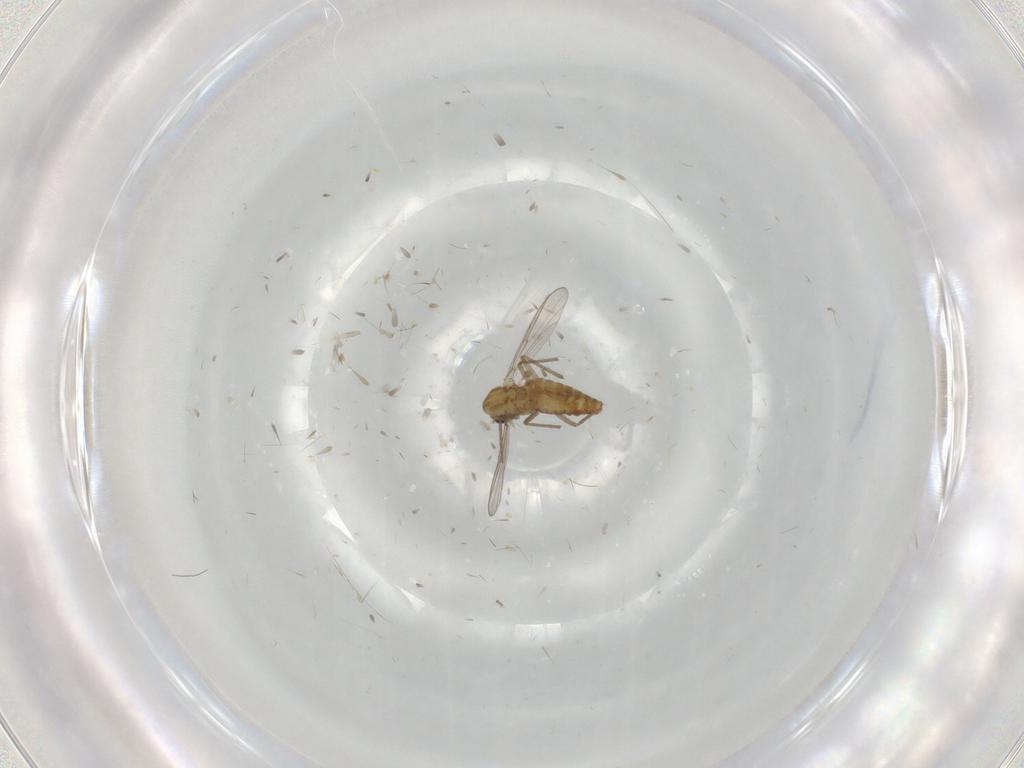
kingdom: Animalia
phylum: Arthropoda
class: Insecta
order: Diptera
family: Chironomidae
